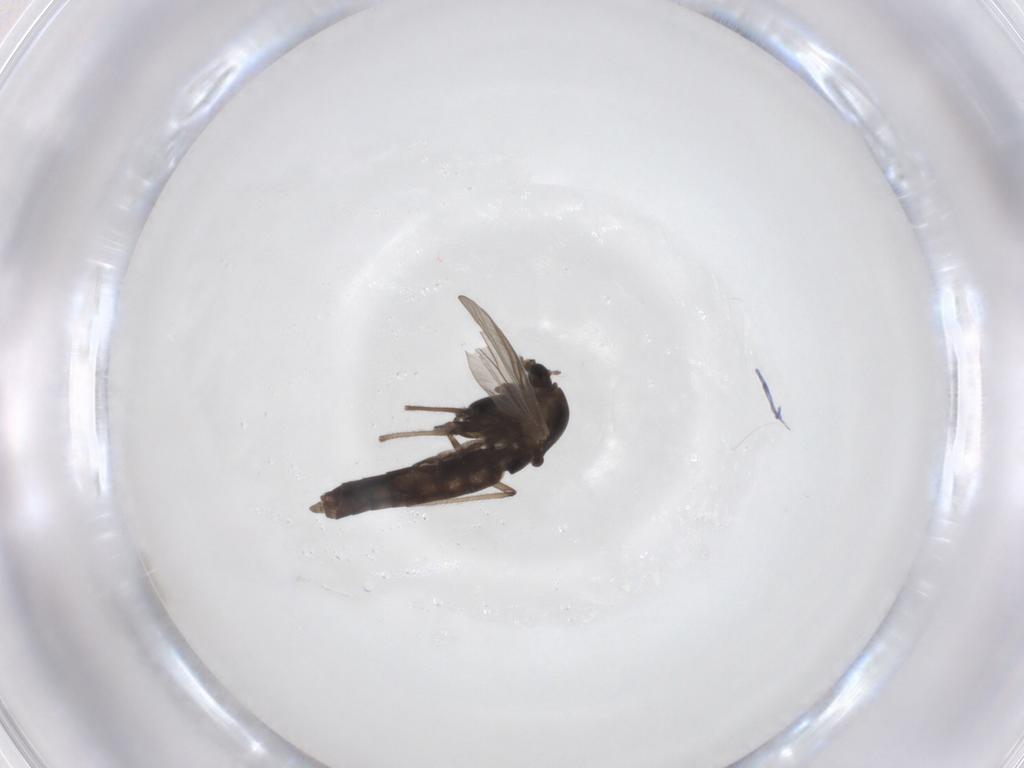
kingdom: Animalia
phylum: Arthropoda
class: Insecta
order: Diptera
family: Chironomidae
